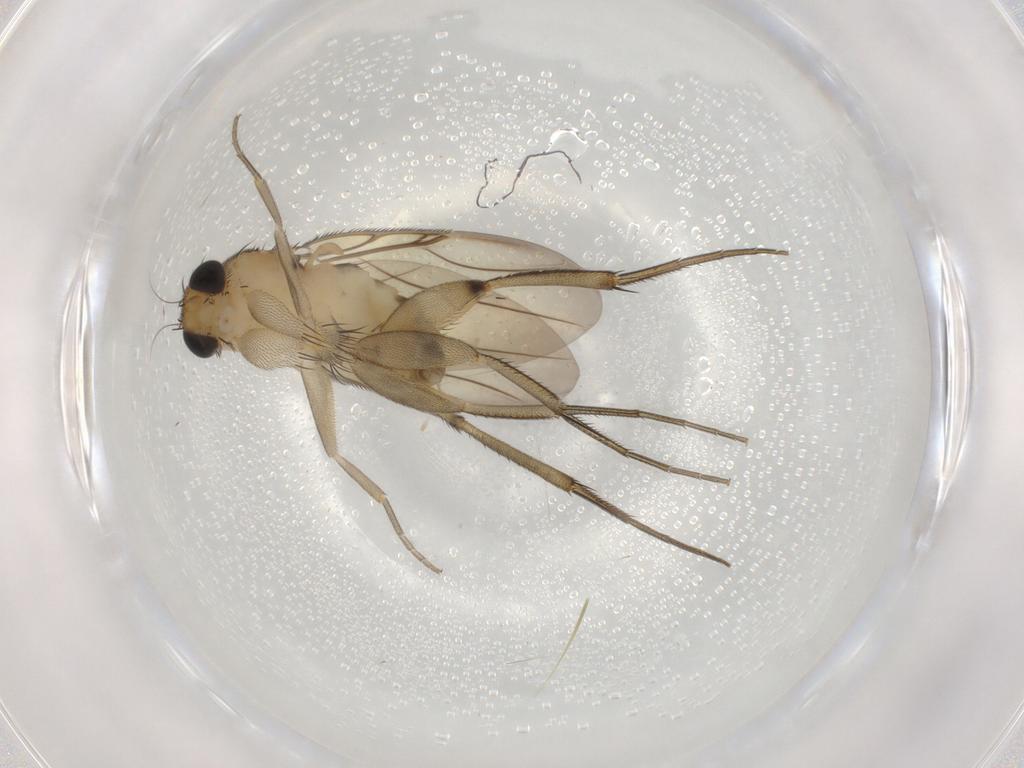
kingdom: Animalia
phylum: Arthropoda
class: Insecta
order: Diptera
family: Phoridae
